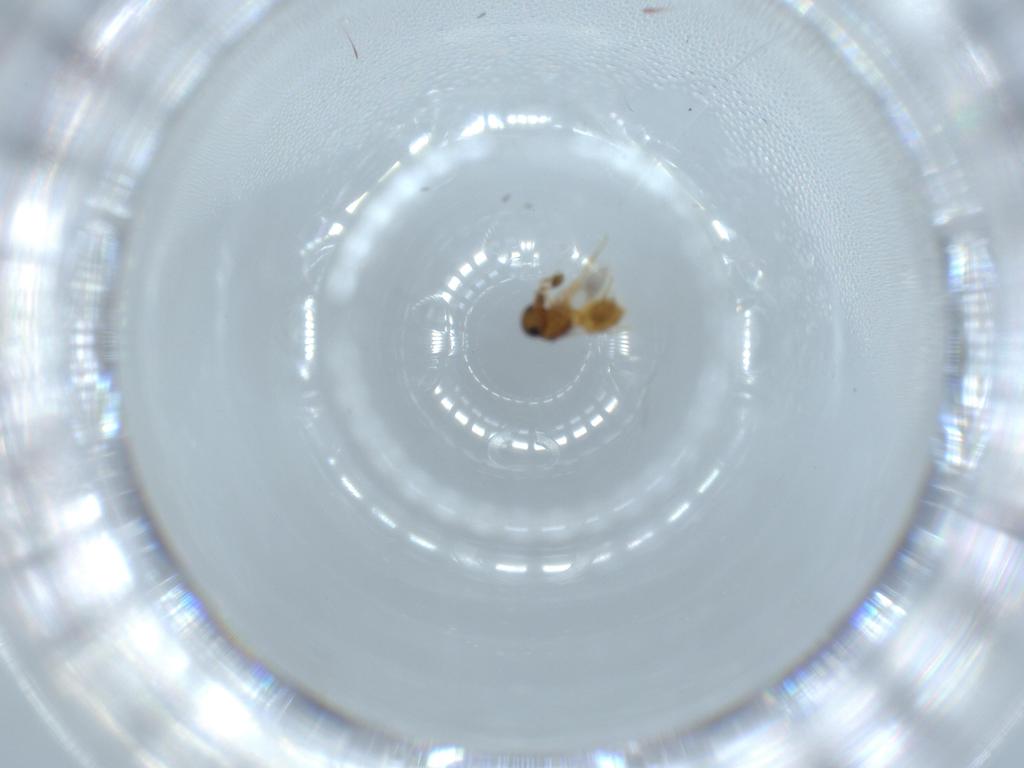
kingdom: Animalia
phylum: Arthropoda
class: Insecta
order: Hymenoptera
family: Scelionidae
